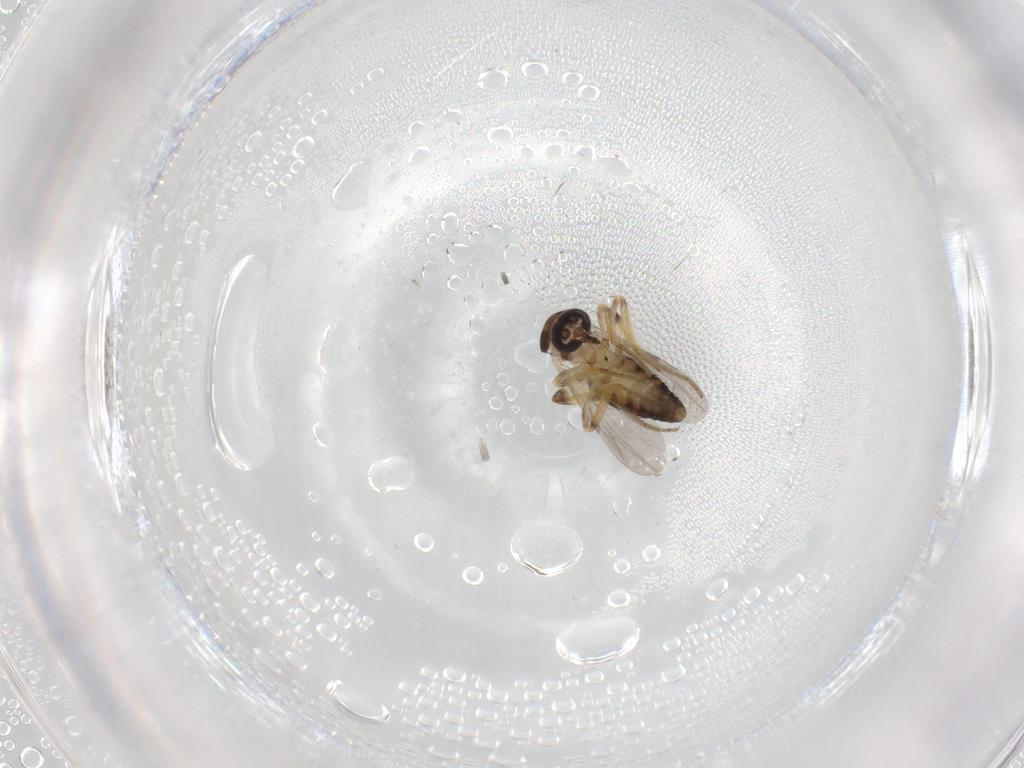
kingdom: Animalia
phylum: Arthropoda
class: Insecta
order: Diptera
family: Ceratopogonidae
